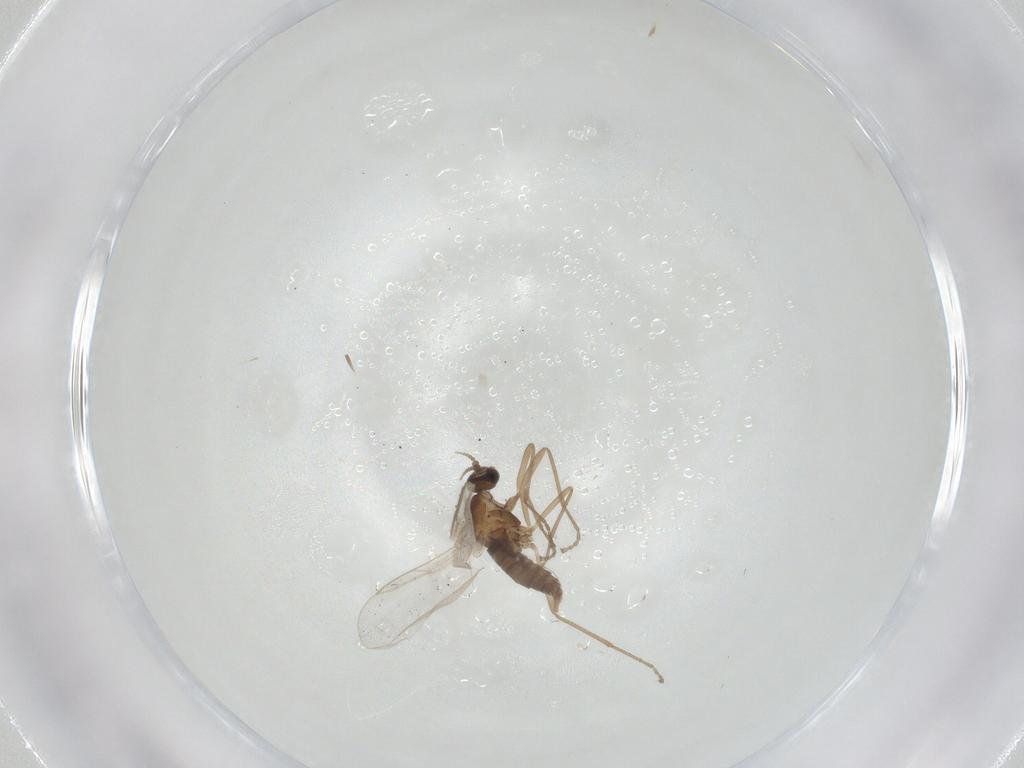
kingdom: Animalia
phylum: Arthropoda
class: Insecta
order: Diptera
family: Cecidomyiidae
